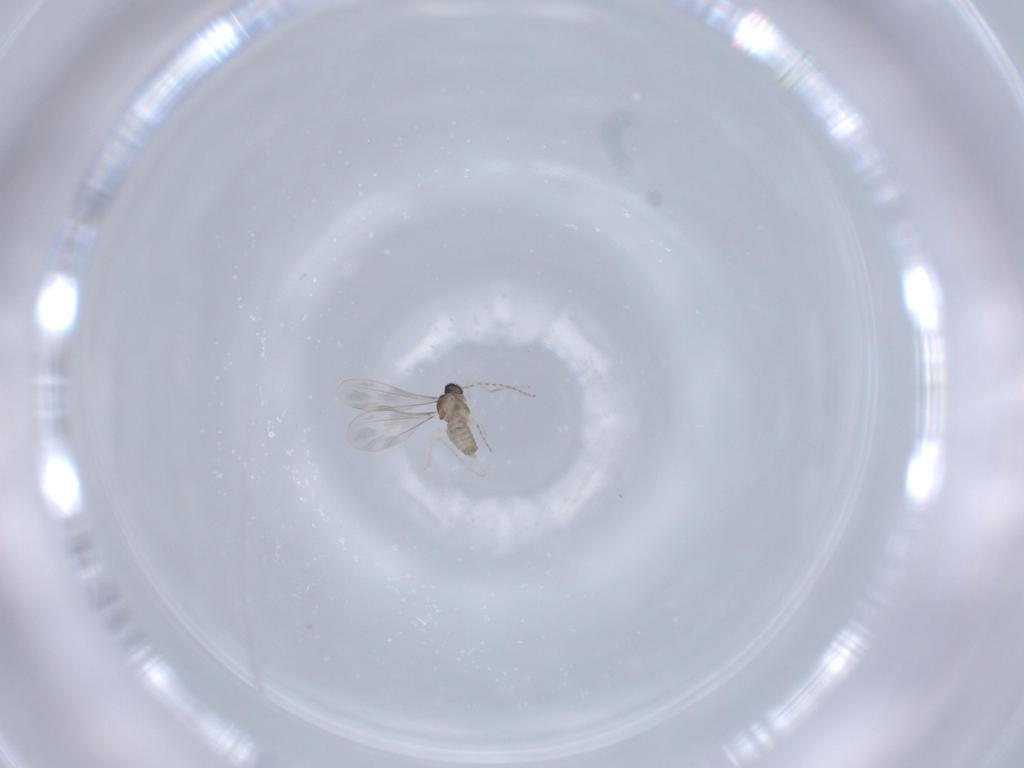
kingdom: Animalia
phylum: Arthropoda
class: Insecta
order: Diptera
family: Cecidomyiidae
